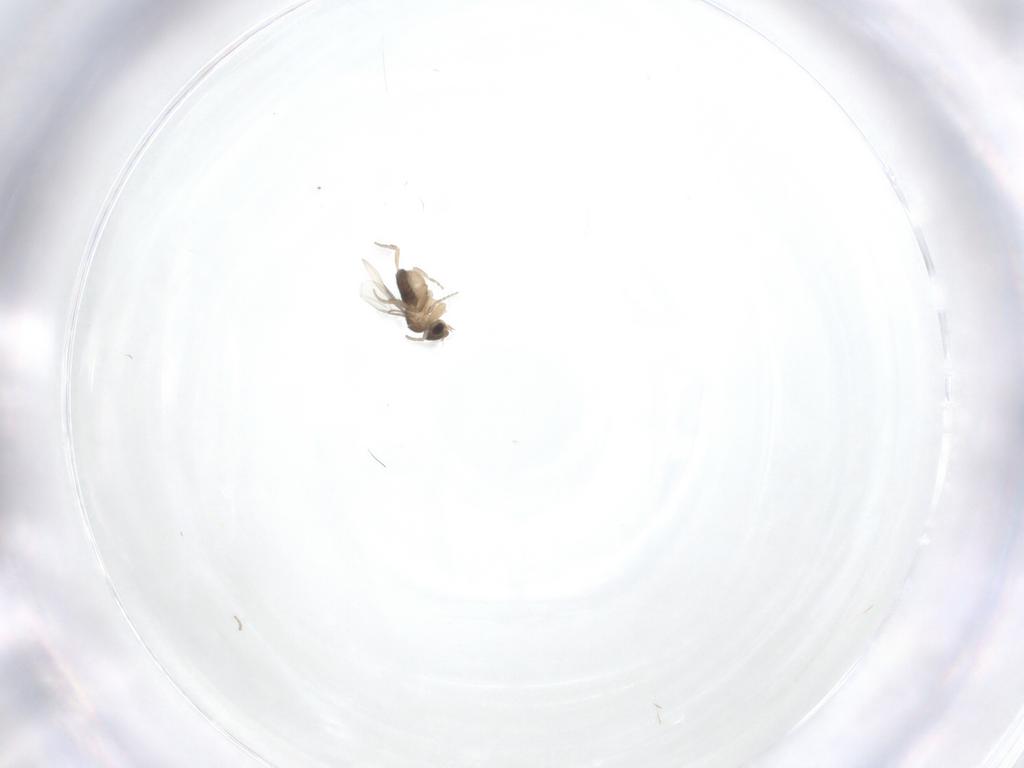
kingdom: Animalia
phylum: Arthropoda
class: Insecta
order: Diptera
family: Phoridae
